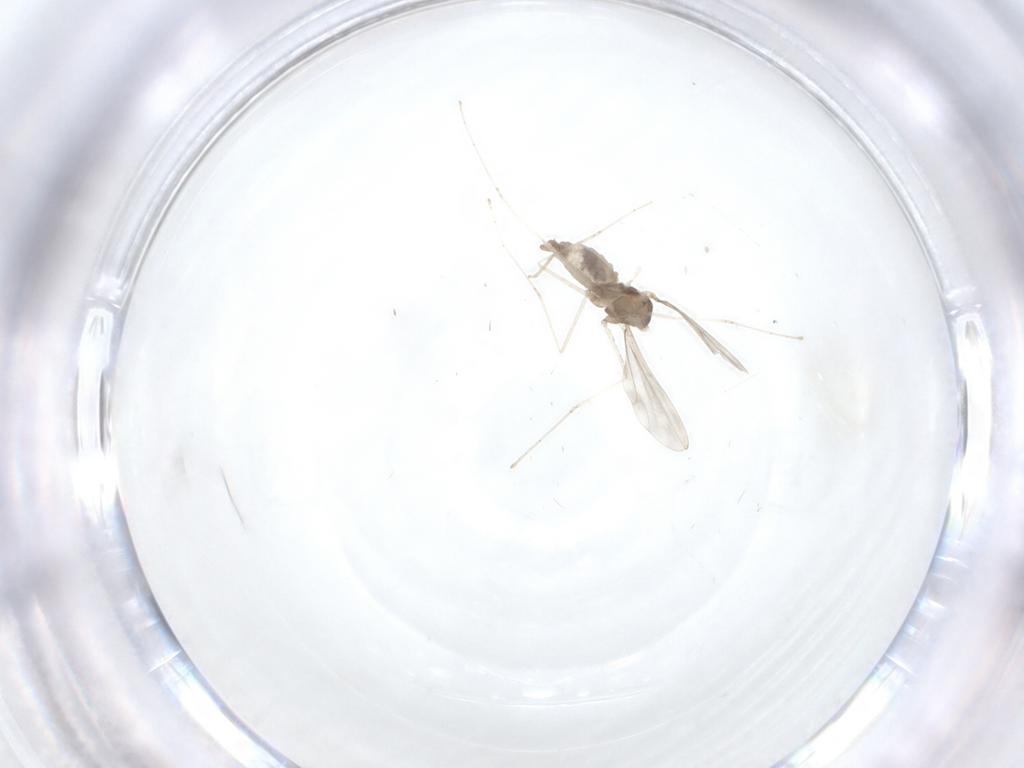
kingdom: Animalia
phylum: Arthropoda
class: Insecta
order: Diptera
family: Cecidomyiidae
